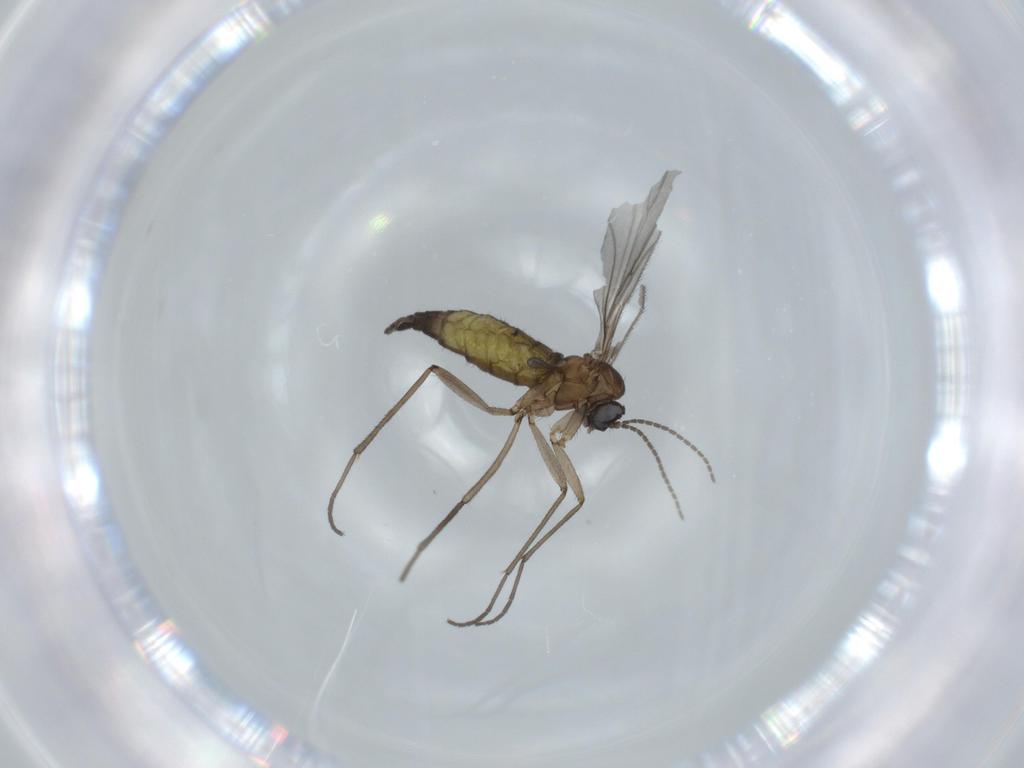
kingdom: Animalia
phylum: Arthropoda
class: Insecta
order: Diptera
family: Sciaridae
